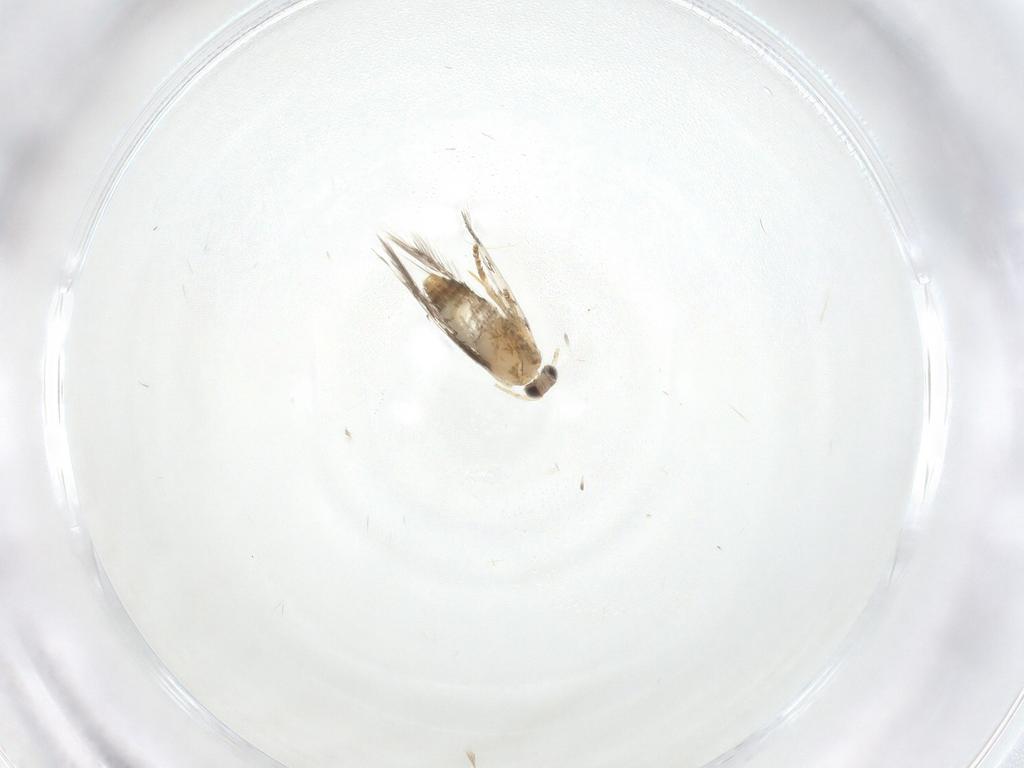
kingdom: Animalia
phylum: Arthropoda
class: Insecta
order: Lepidoptera
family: Nepticulidae
